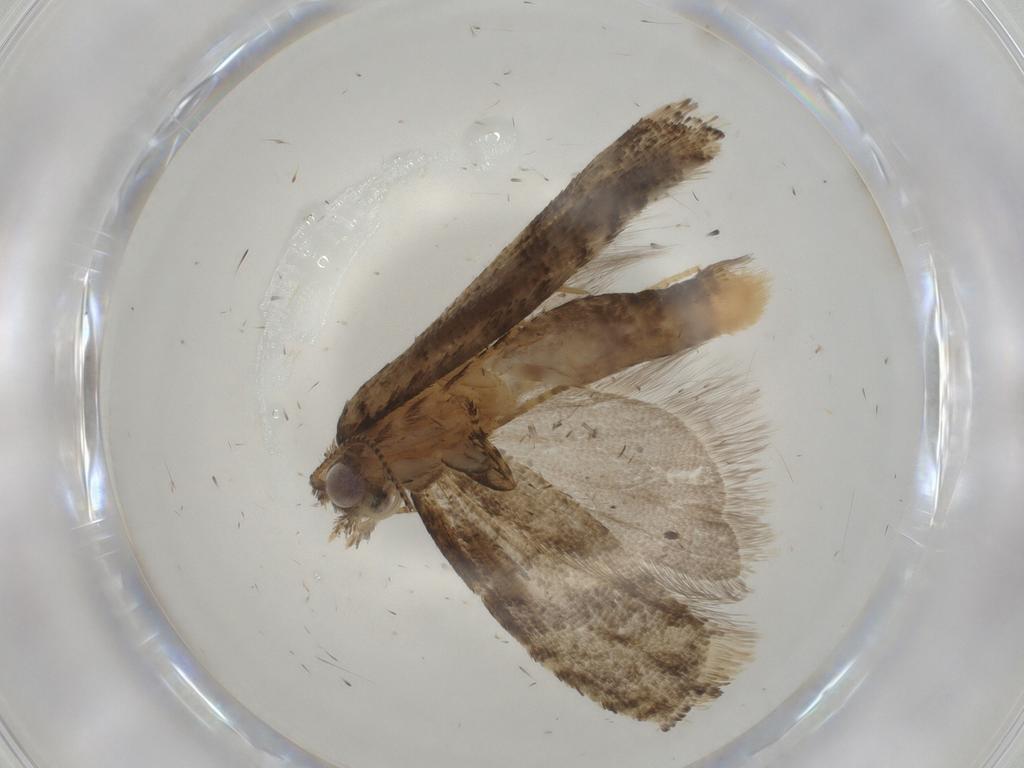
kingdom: Animalia
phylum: Arthropoda
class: Insecta
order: Lepidoptera
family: Tortricidae
